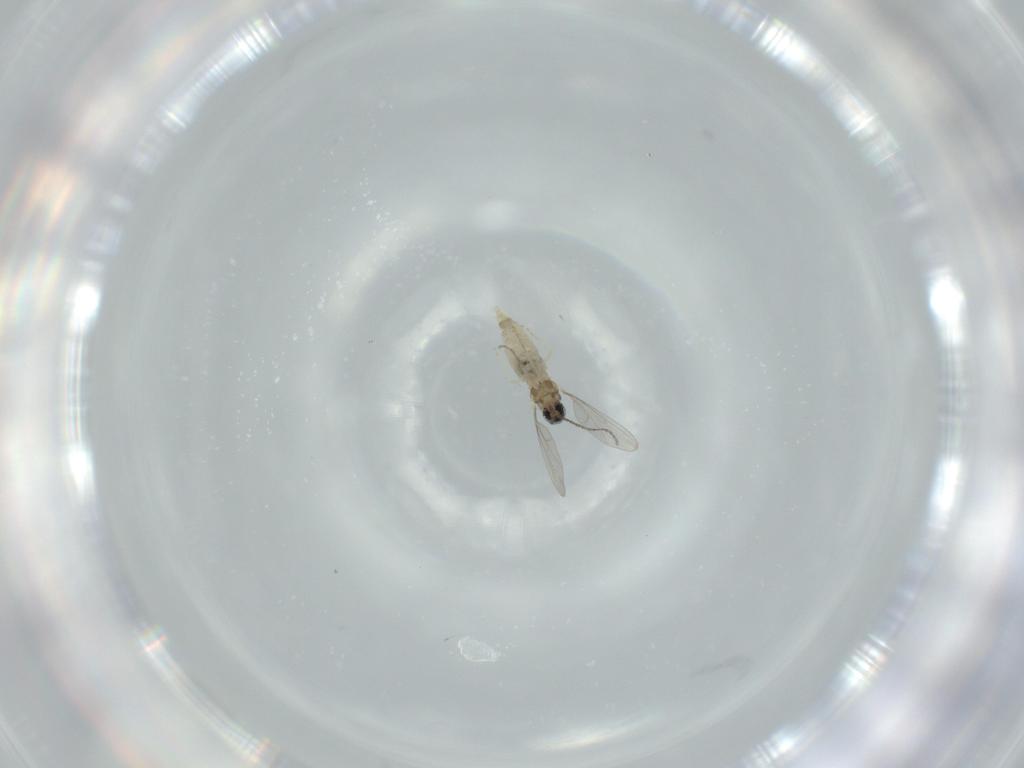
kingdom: Animalia
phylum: Arthropoda
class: Insecta
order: Diptera
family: Cecidomyiidae
